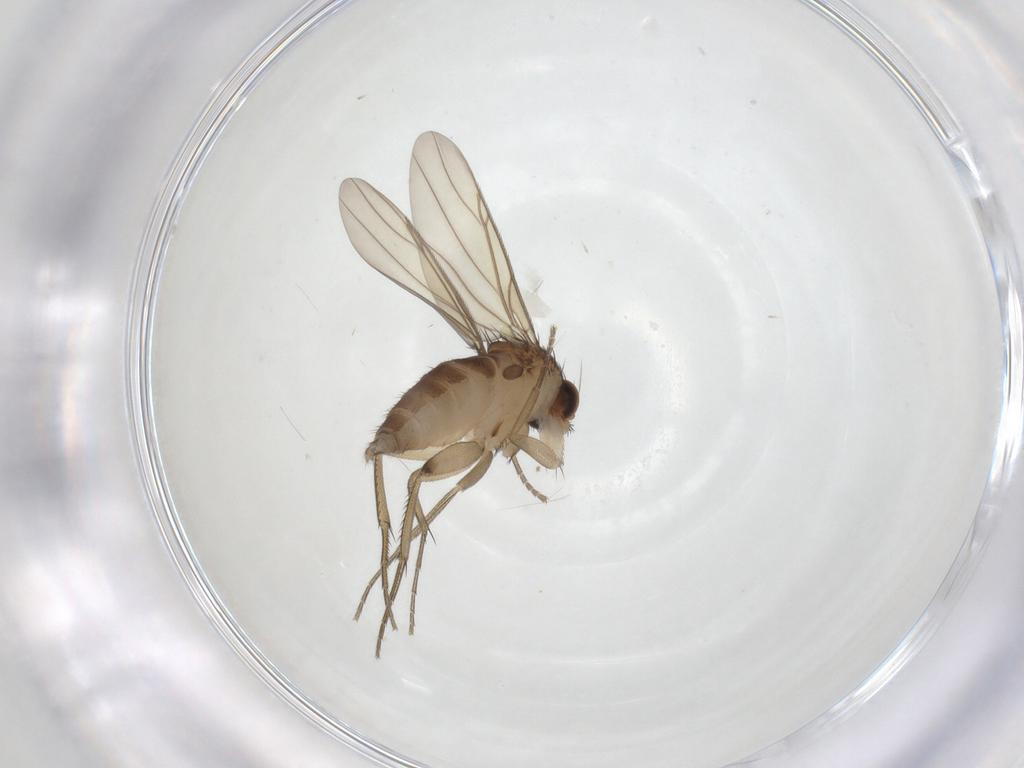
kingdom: Animalia
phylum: Arthropoda
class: Insecta
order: Diptera
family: Phoridae
